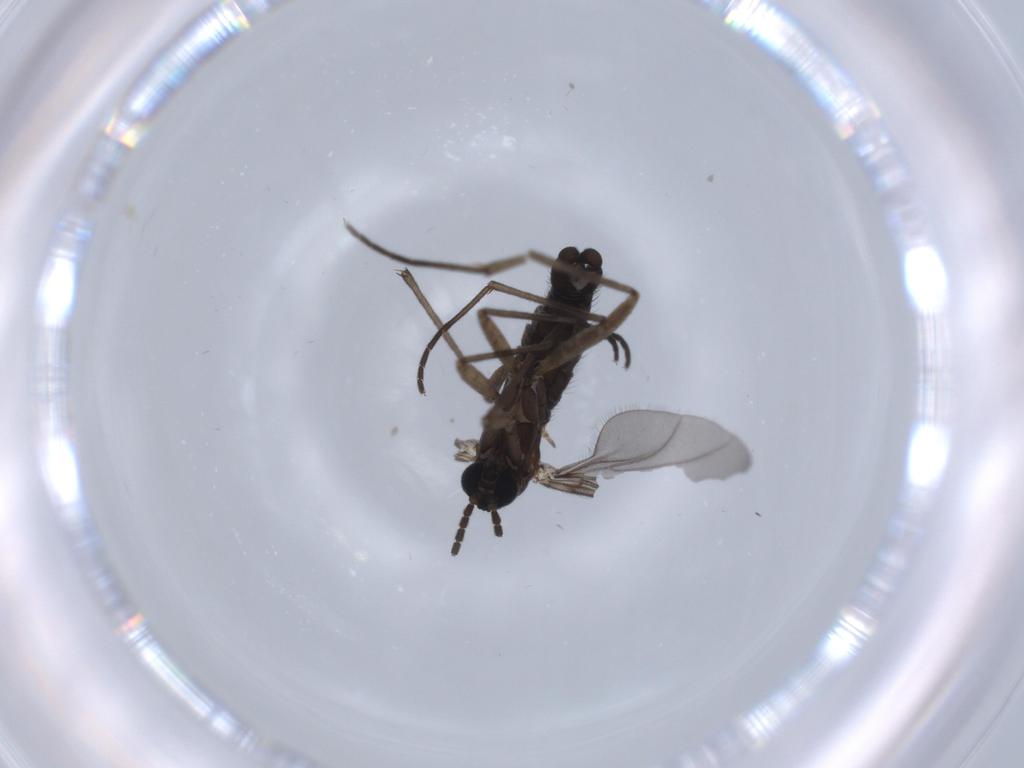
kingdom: Animalia
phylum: Arthropoda
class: Insecta
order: Diptera
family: Sciaridae
